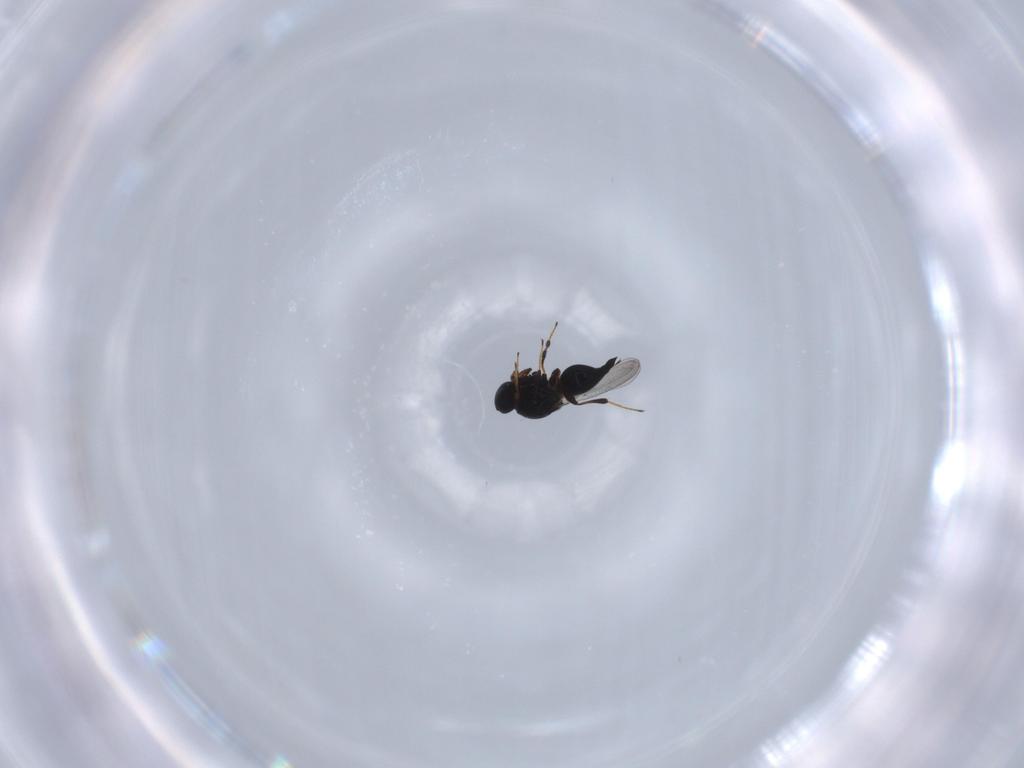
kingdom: Animalia
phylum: Arthropoda
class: Insecta
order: Hymenoptera
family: Platygastridae
